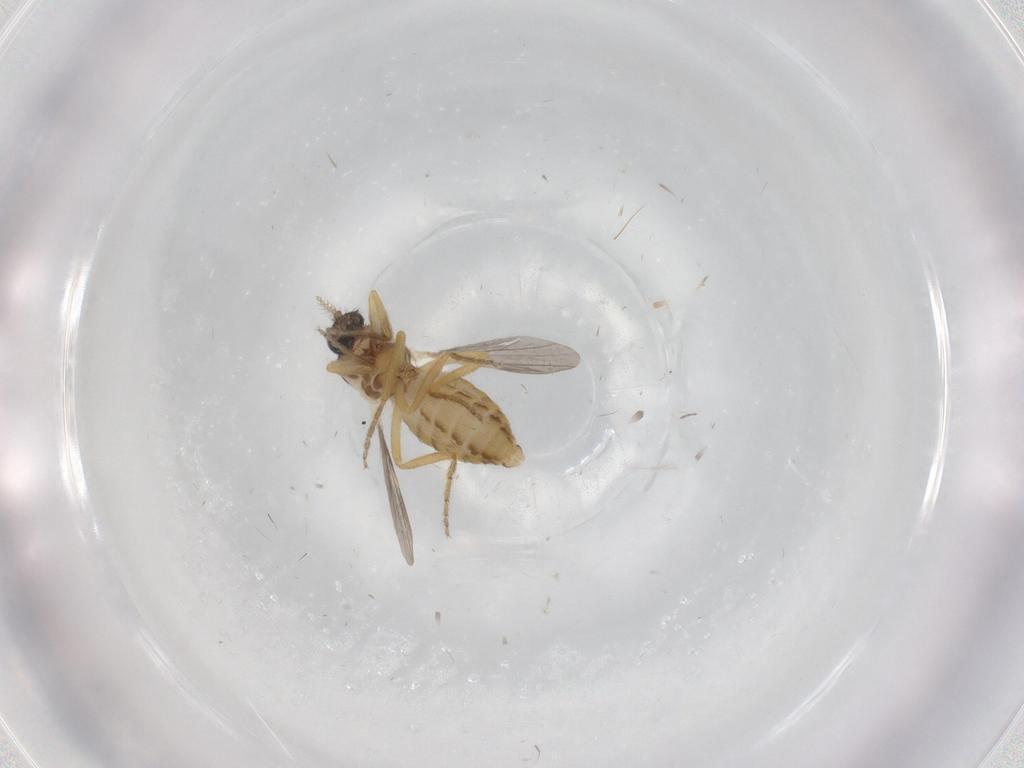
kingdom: Animalia
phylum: Arthropoda
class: Insecta
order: Diptera
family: Ceratopogonidae
